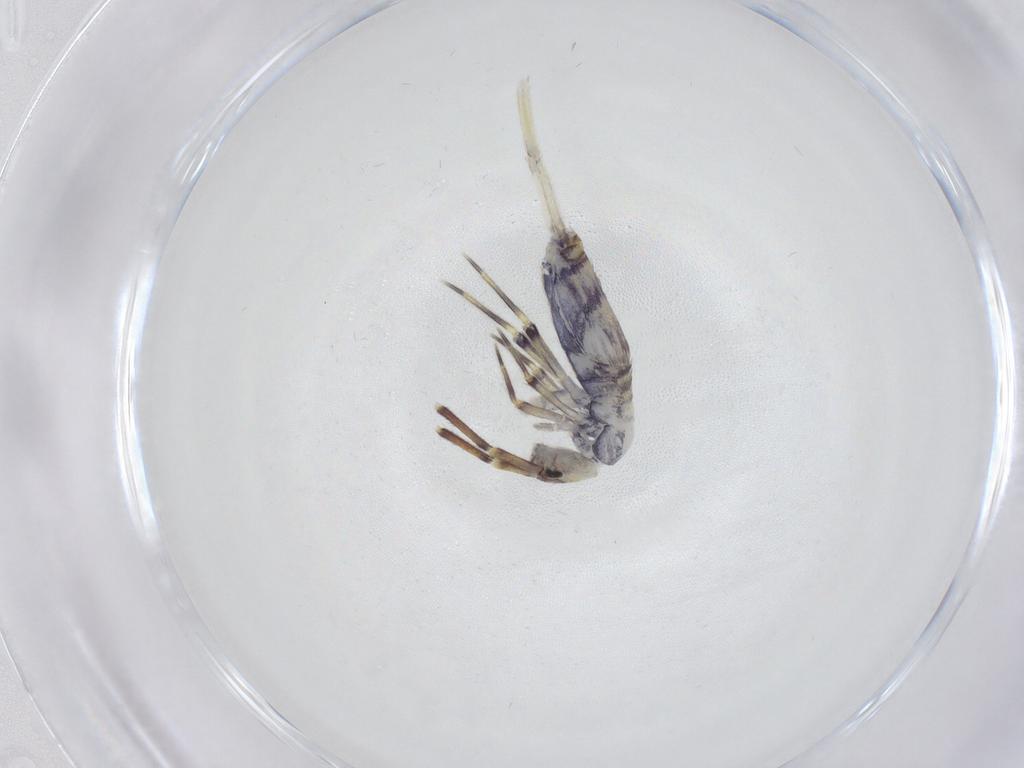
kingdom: Animalia
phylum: Arthropoda
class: Collembola
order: Entomobryomorpha
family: Entomobryidae
